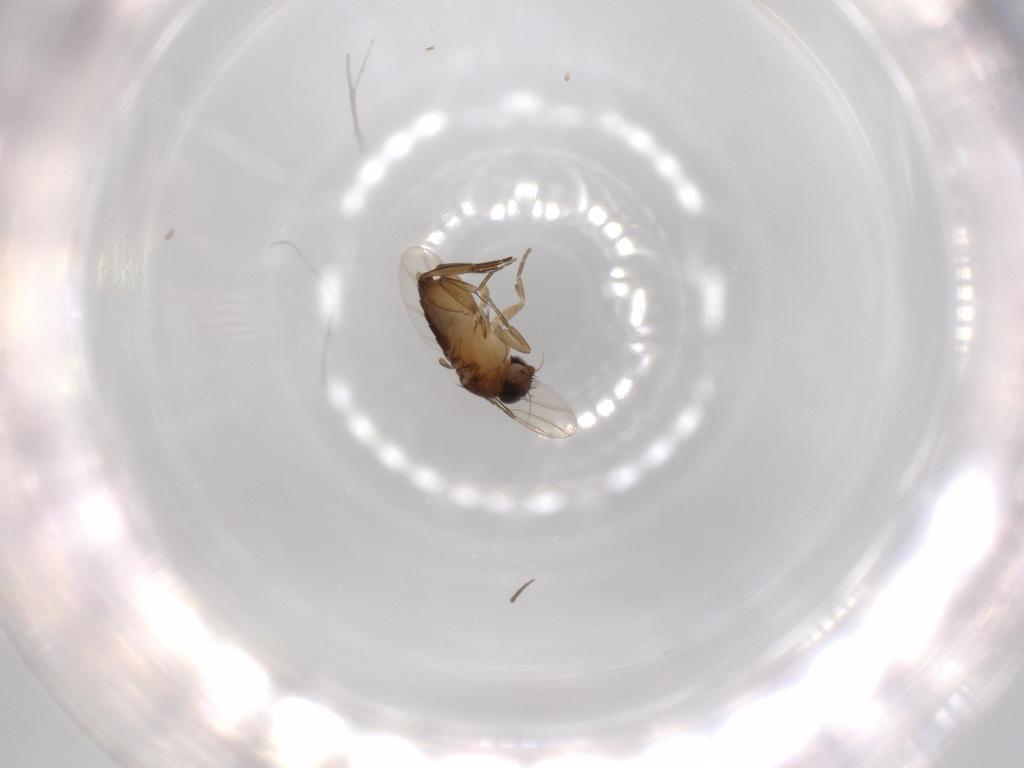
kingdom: Animalia
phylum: Arthropoda
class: Insecta
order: Diptera
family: Phoridae
